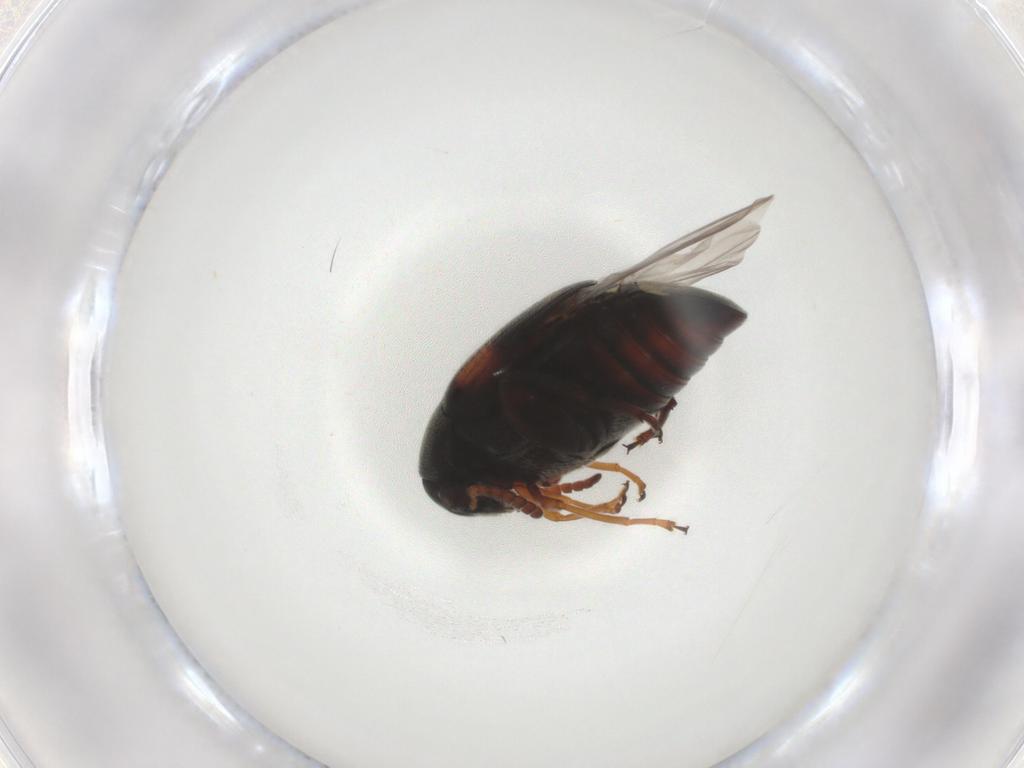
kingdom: Animalia
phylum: Arthropoda
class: Insecta
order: Coleoptera
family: Chrysomelidae
